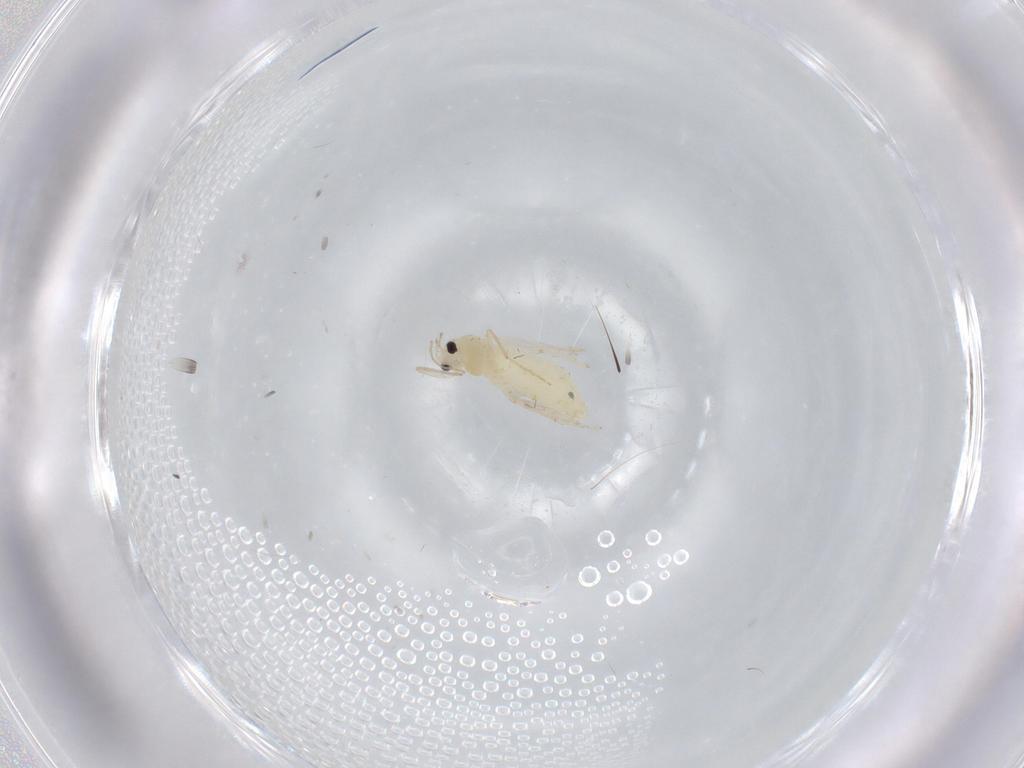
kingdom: Animalia
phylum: Arthropoda
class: Insecta
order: Diptera
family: Chironomidae
